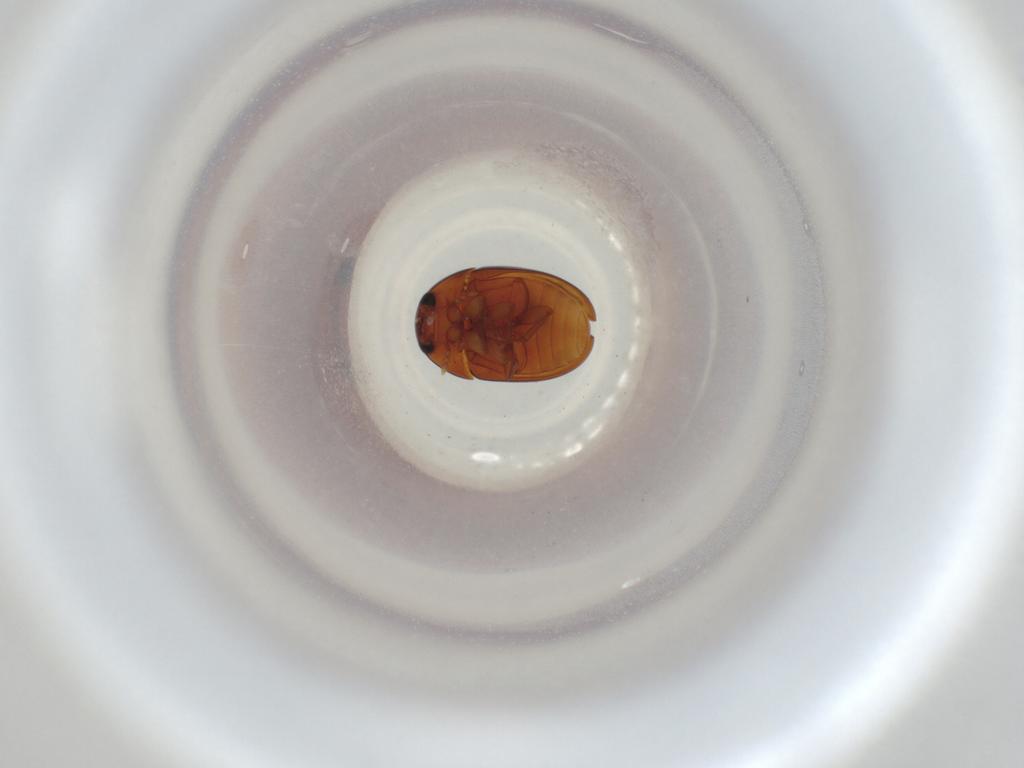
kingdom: Animalia
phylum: Arthropoda
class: Insecta
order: Coleoptera
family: Phalacridae
